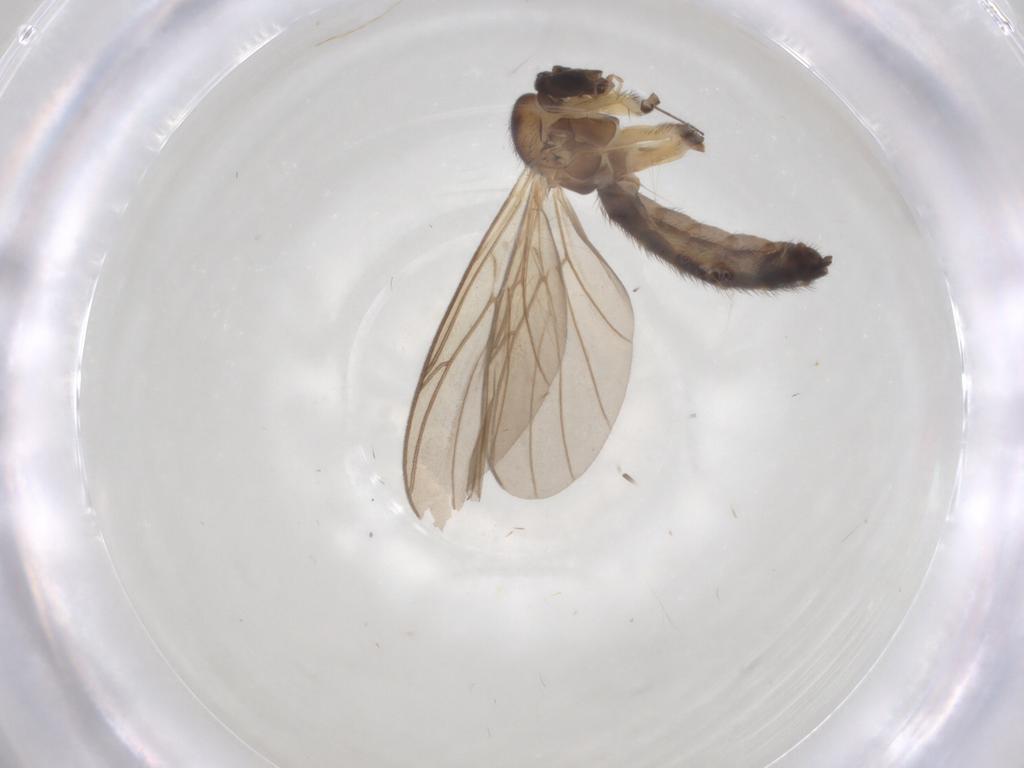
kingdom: Animalia
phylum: Arthropoda
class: Insecta
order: Diptera
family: Keroplatidae
